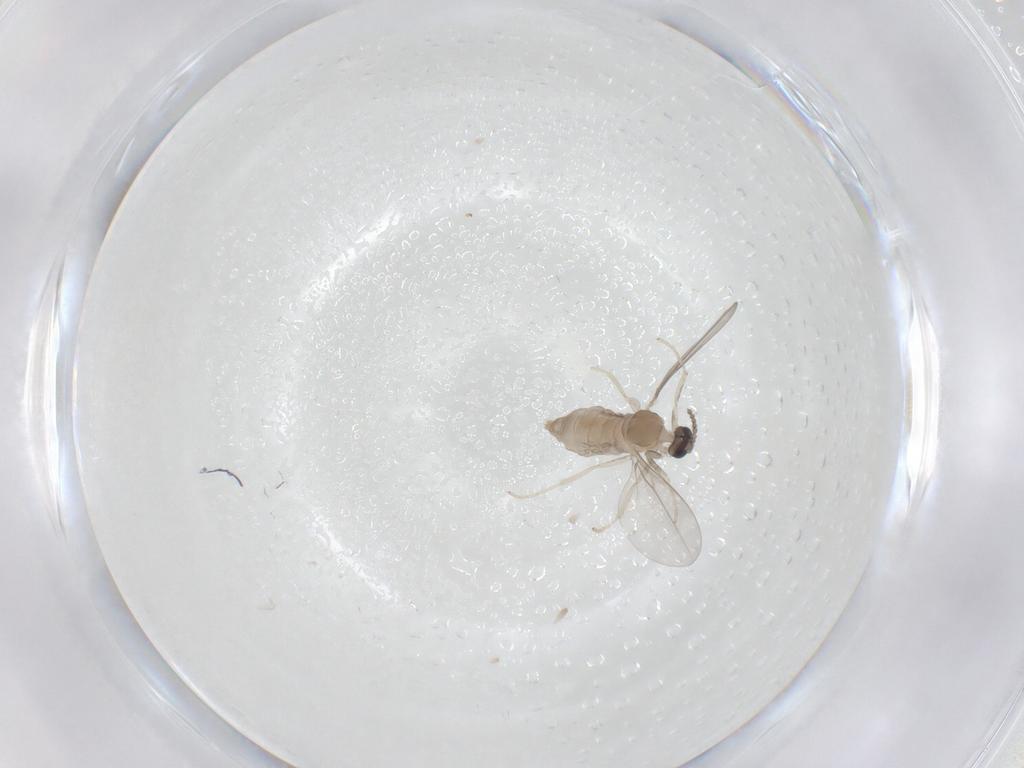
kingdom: Animalia
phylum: Arthropoda
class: Insecta
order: Diptera
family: Cecidomyiidae
